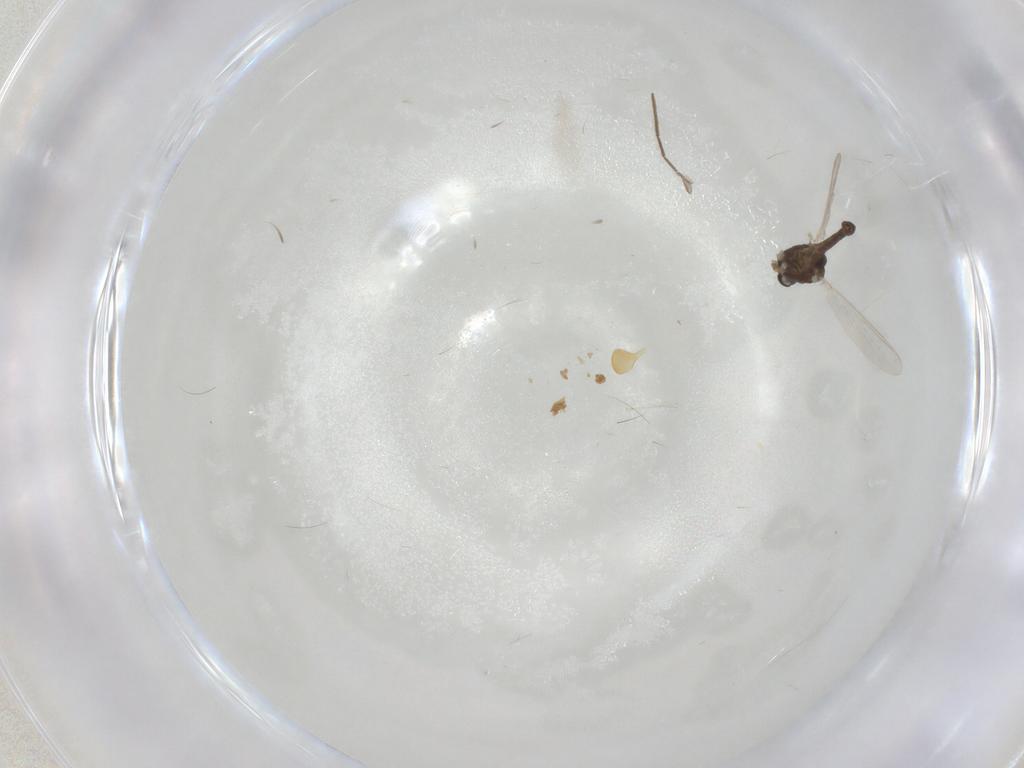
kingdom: Animalia
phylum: Arthropoda
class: Insecta
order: Diptera
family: Chironomidae
